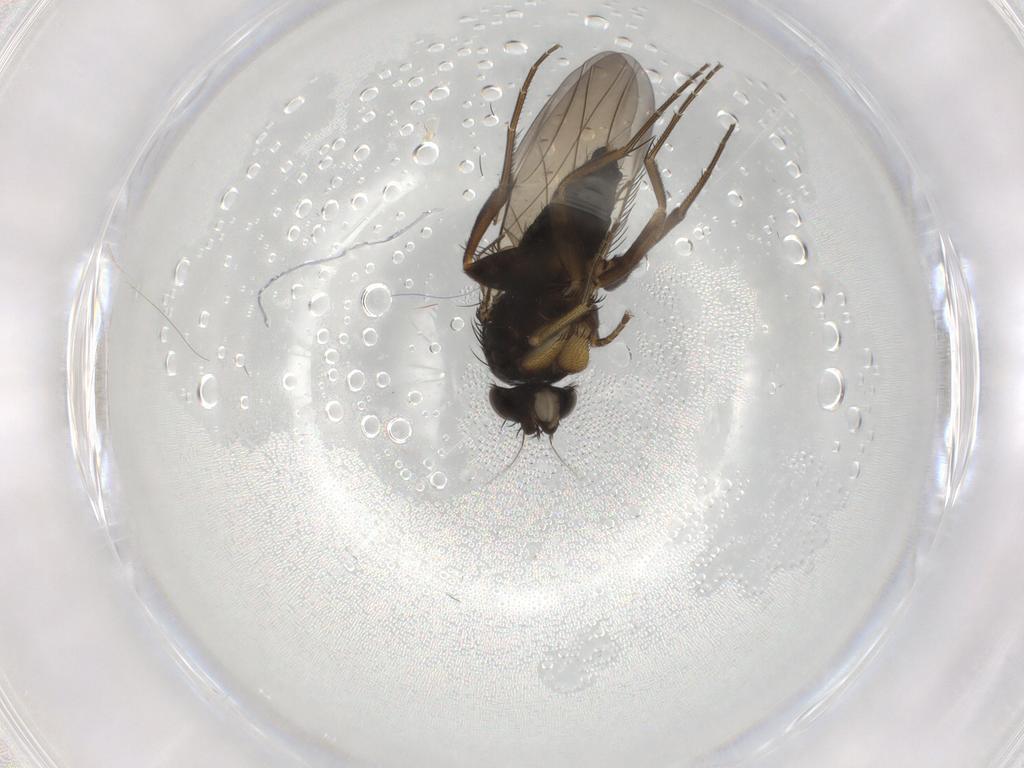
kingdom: Animalia
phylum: Arthropoda
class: Insecta
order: Diptera
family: Phoridae
